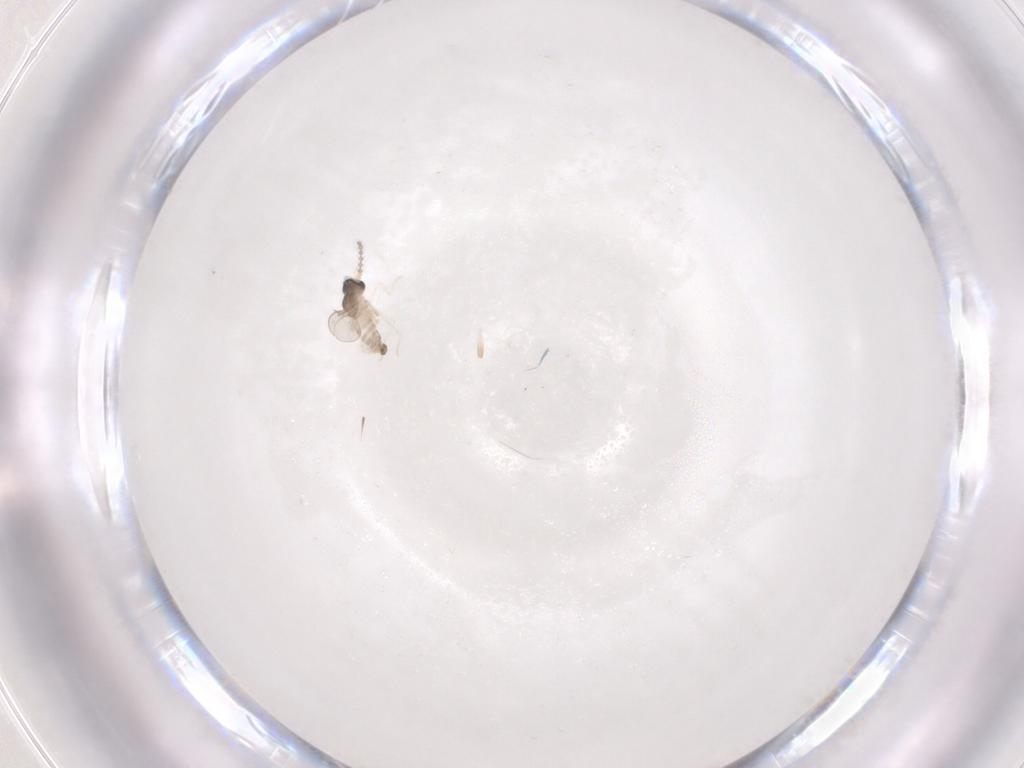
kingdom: Animalia
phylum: Arthropoda
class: Insecta
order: Diptera
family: Cecidomyiidae
